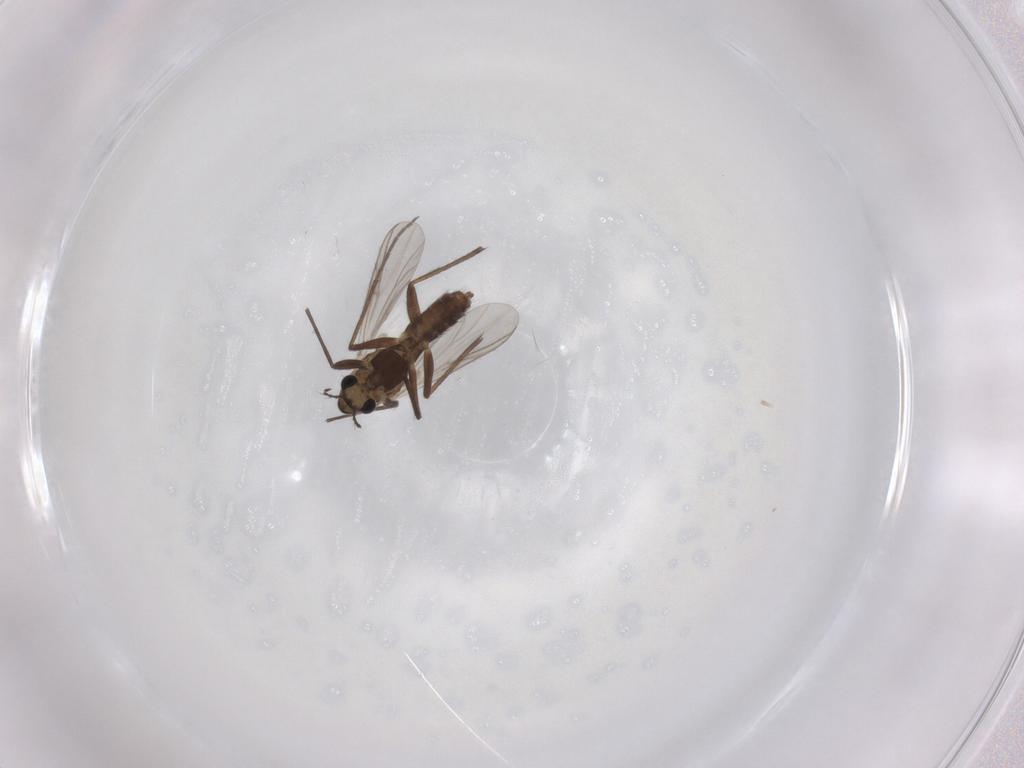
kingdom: Animalia
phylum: Arthropoda
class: Insecta
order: Diptera
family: Chironomidae
